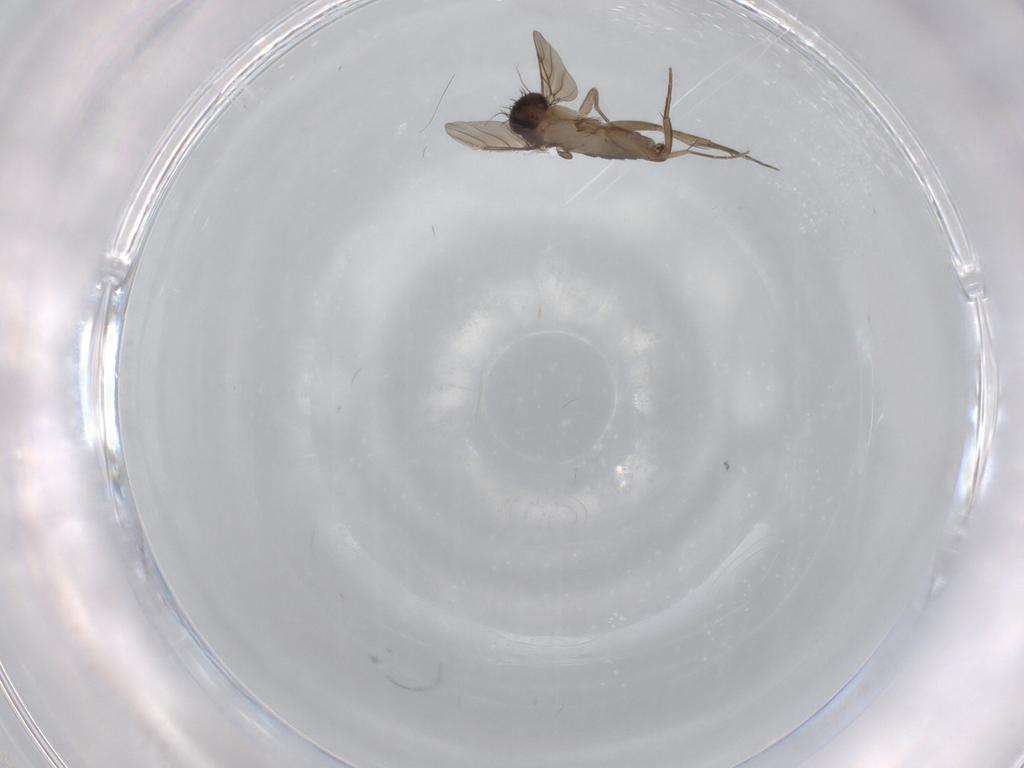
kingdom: Animalia
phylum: Arthropoda
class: Insecta
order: Diptera
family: Phoridae
